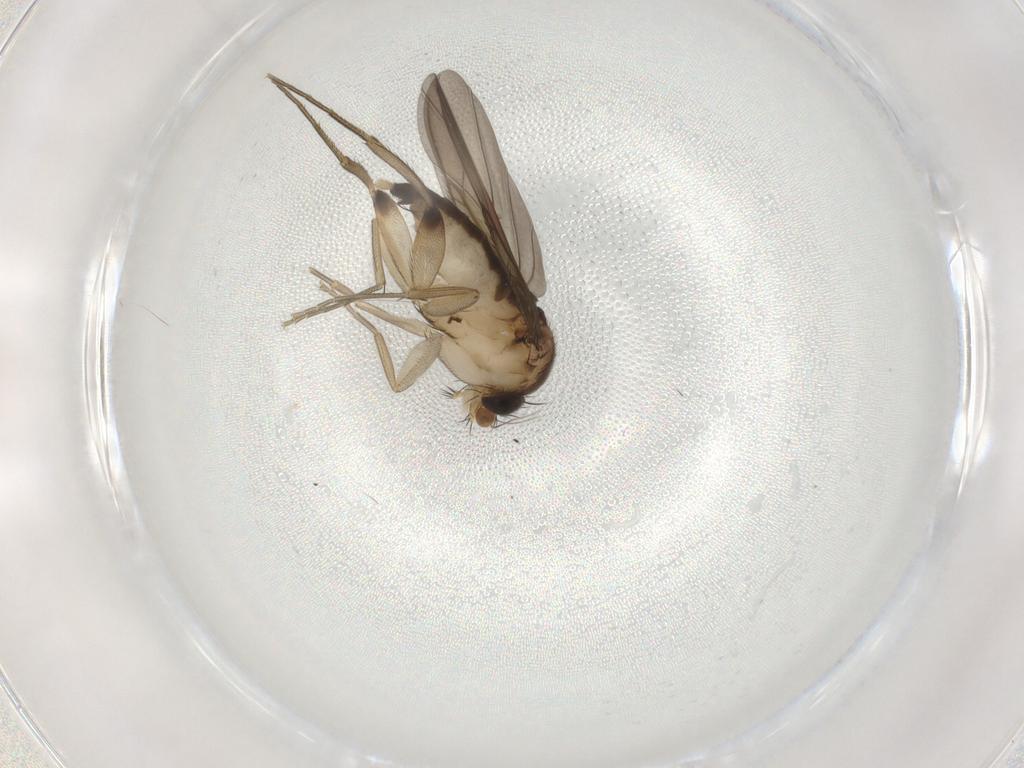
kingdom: Animalia
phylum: Arthropoda
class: Insecta
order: Diptera
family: Phoridae
